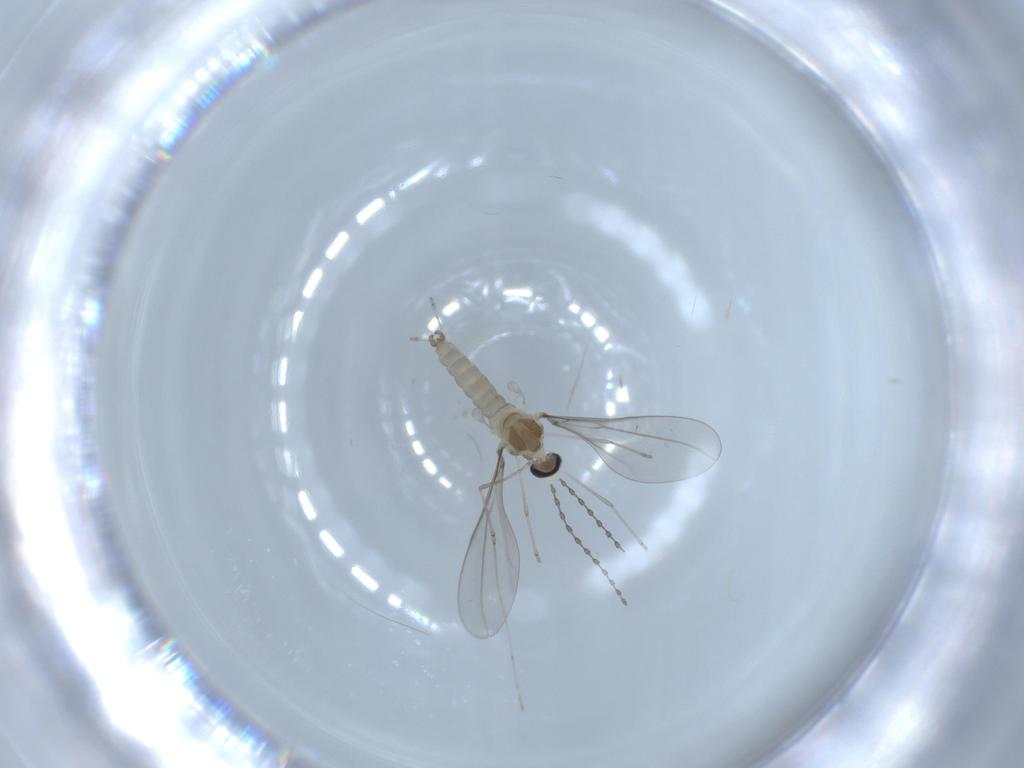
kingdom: Animalia
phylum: Arthropoda
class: Insecta
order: Diptera
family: Cecidomyiidae
